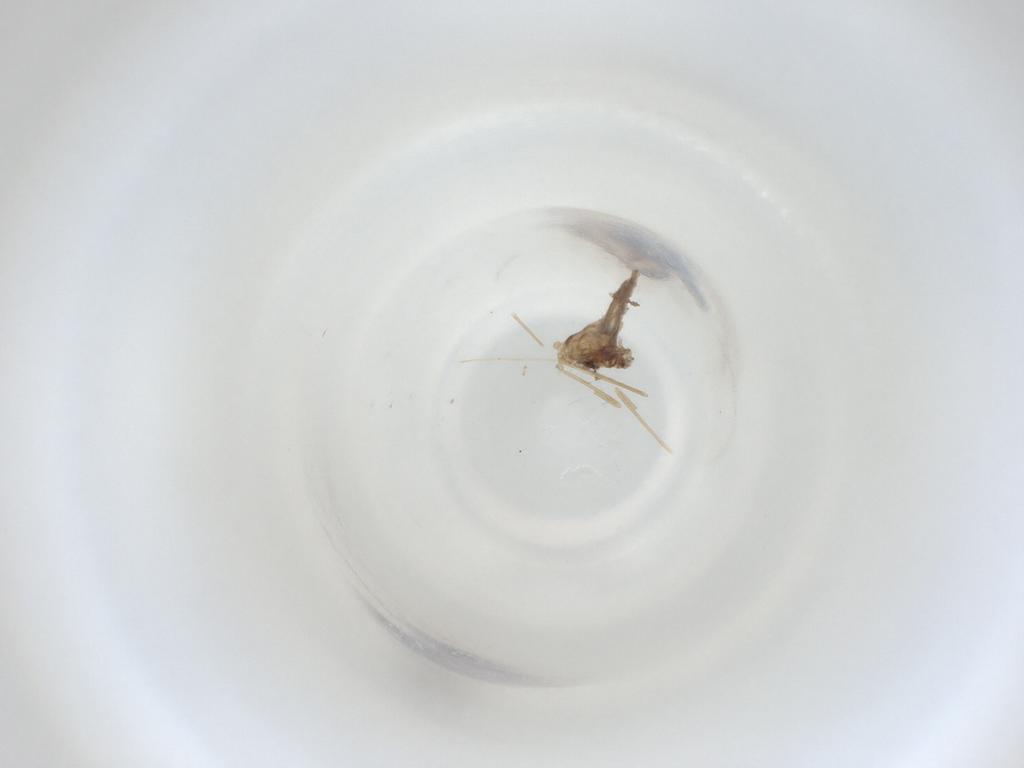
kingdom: Animalia
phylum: Arthropoda
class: Insecta
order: Diptera
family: Cecidomyiidae
